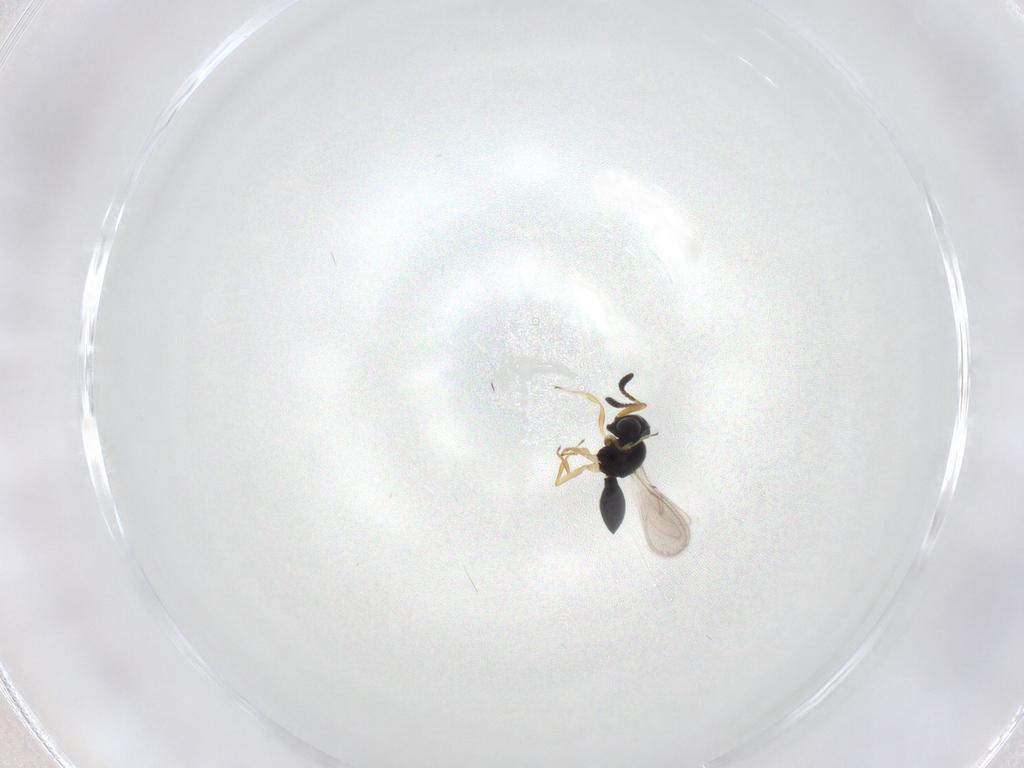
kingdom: Animalia
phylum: Arthropoda
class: Insecta
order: Hymenoptera
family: Scelionidae
